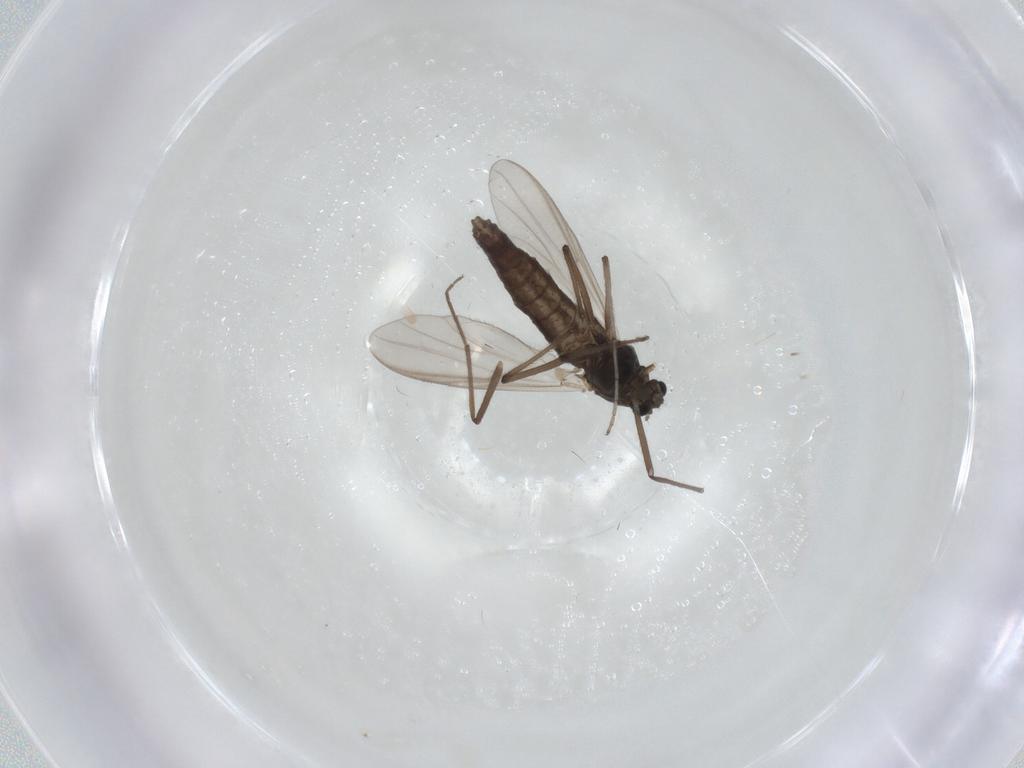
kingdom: Animalia
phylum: Arthropoda
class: Insecta
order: Diptera
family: Chironomidae
